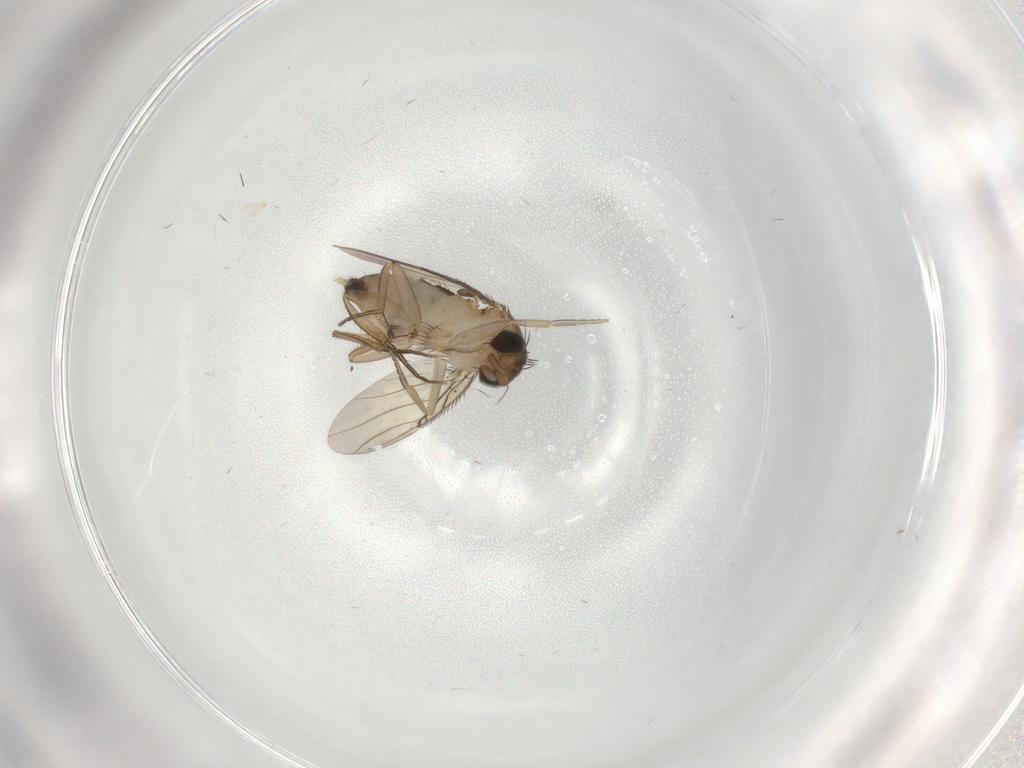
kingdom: Animalia
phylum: Arthropoda
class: Insecta
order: Diptera
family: Phoridae
